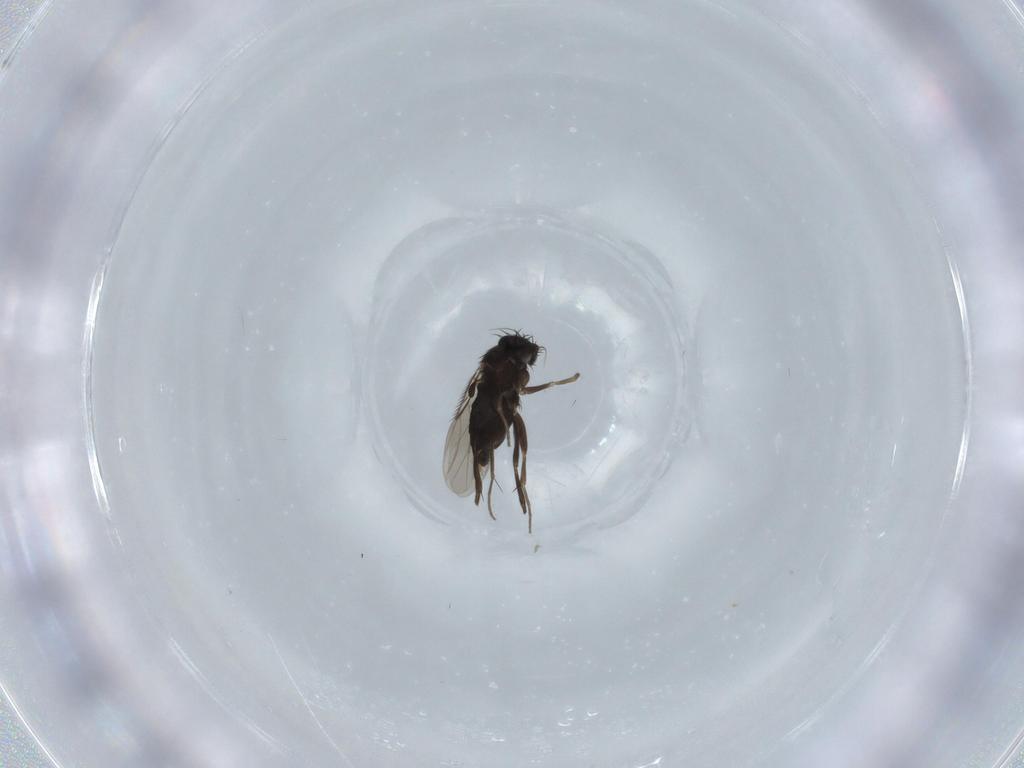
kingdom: Animalia
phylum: Arthropoda
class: Insecta
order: Diptera
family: Phoridae
